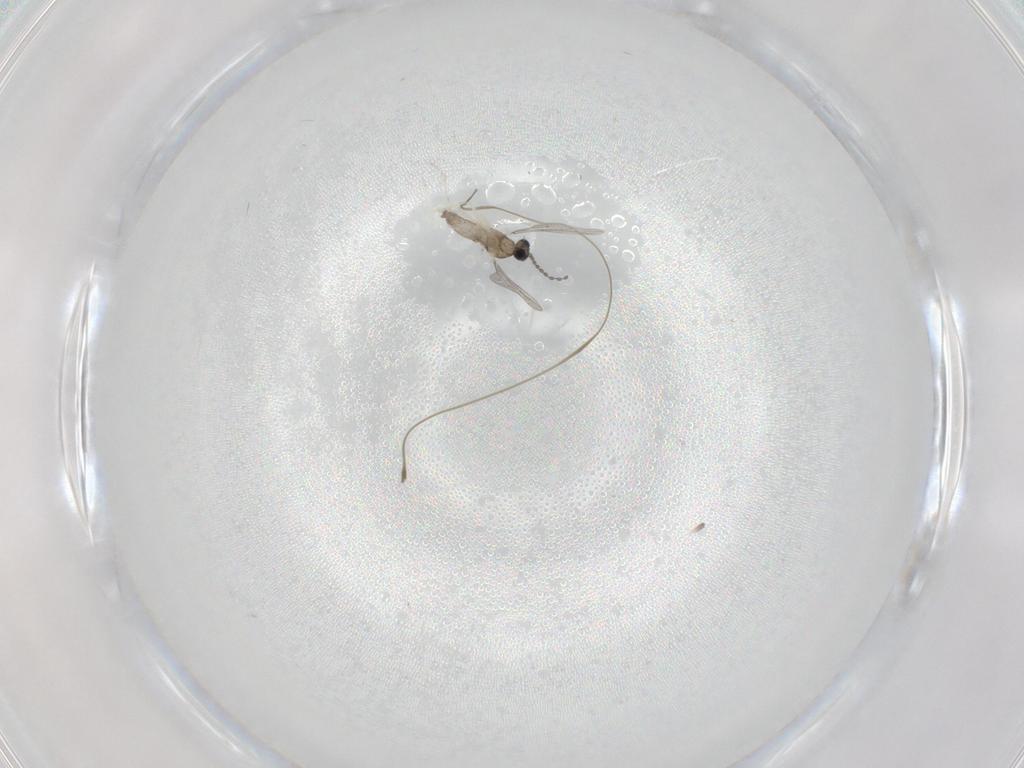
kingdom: Animalia
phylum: Arthropoda
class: Insecta
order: Diptera
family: Cecidomyiidae
